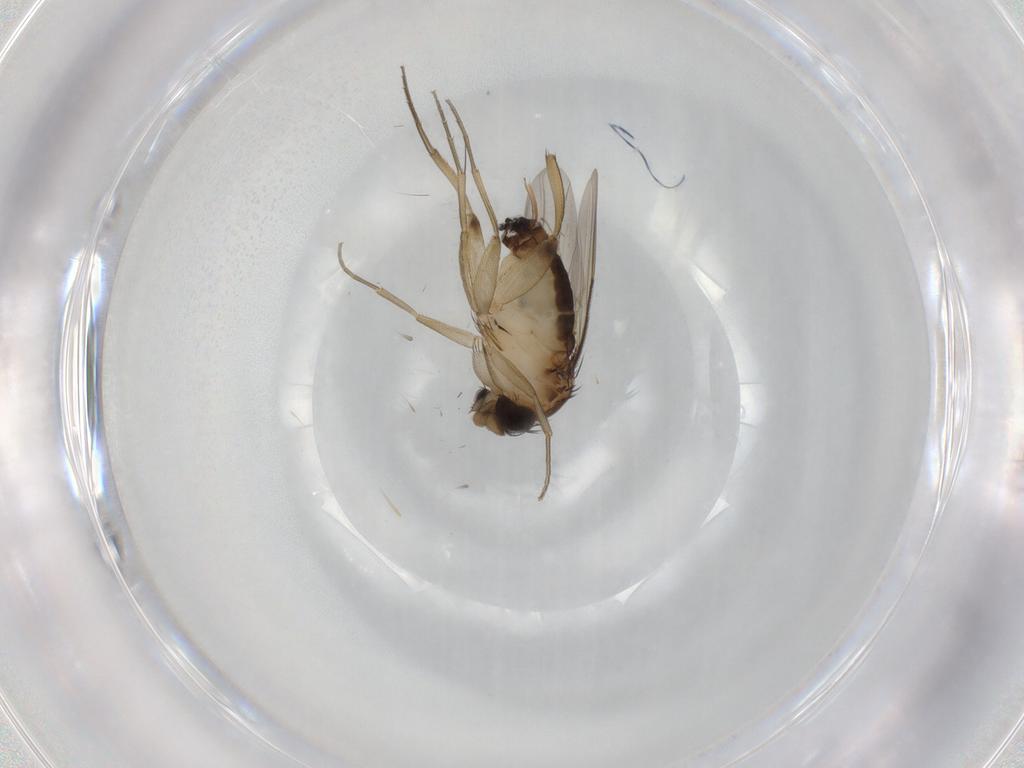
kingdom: Animalia
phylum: Arthropoda
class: Insecta
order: Diptera
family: Phoridae
